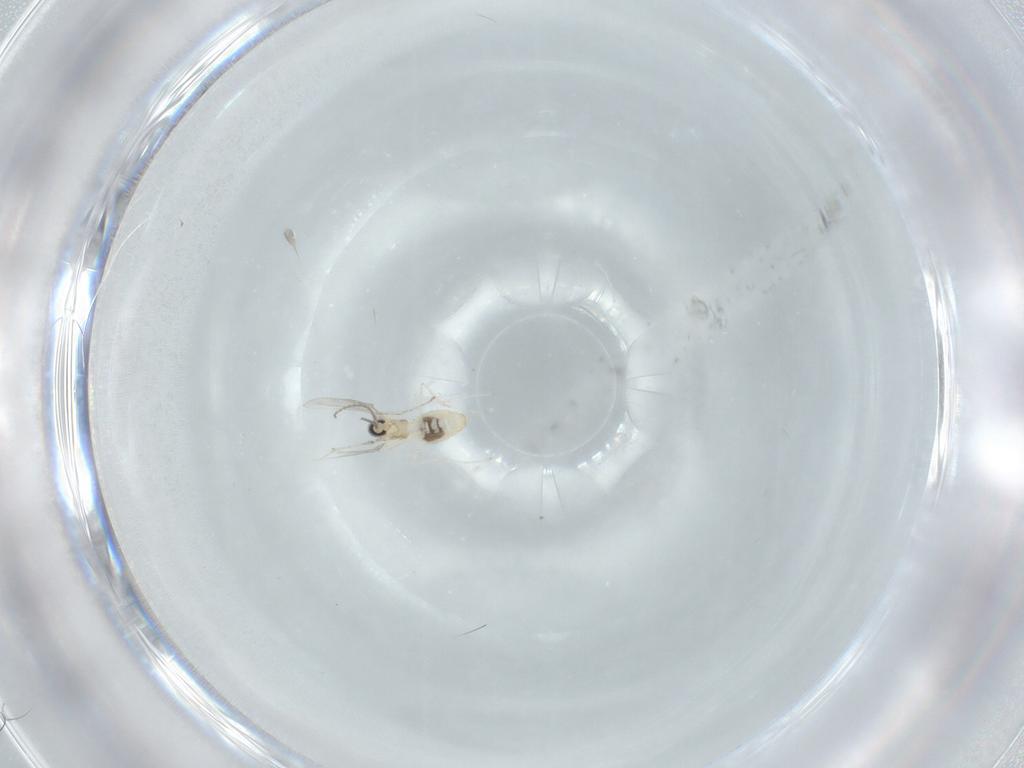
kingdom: Animalia
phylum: Arthropoda
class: Insecta
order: Diptera
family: Cecidomyiidae
